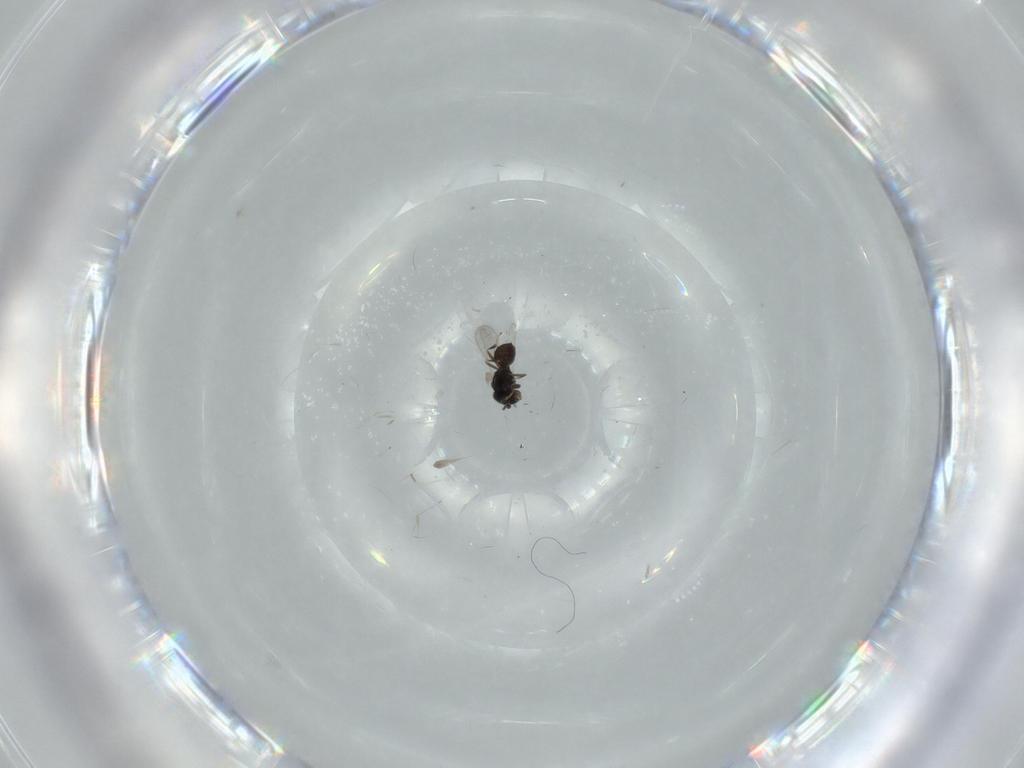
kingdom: Animalia
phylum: Arthropoda
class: Insecta
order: Hymenoptera
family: Scelionidae
